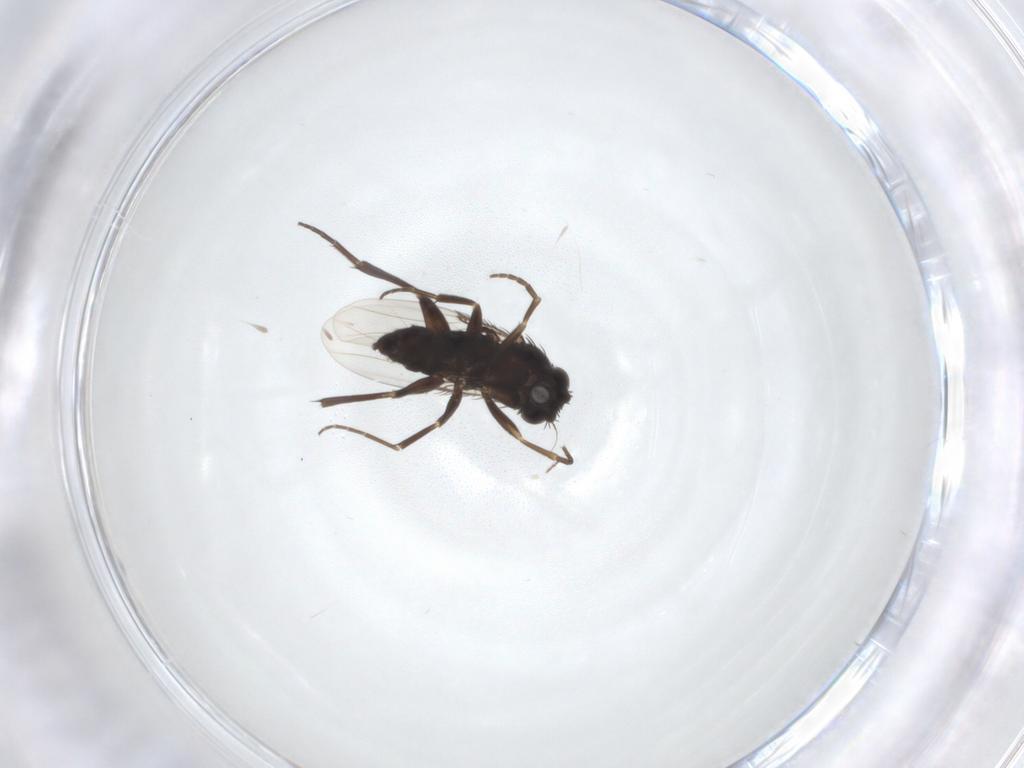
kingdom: Animalia
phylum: Arthropoda
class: Insecta
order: Diptera
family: Phoridae
